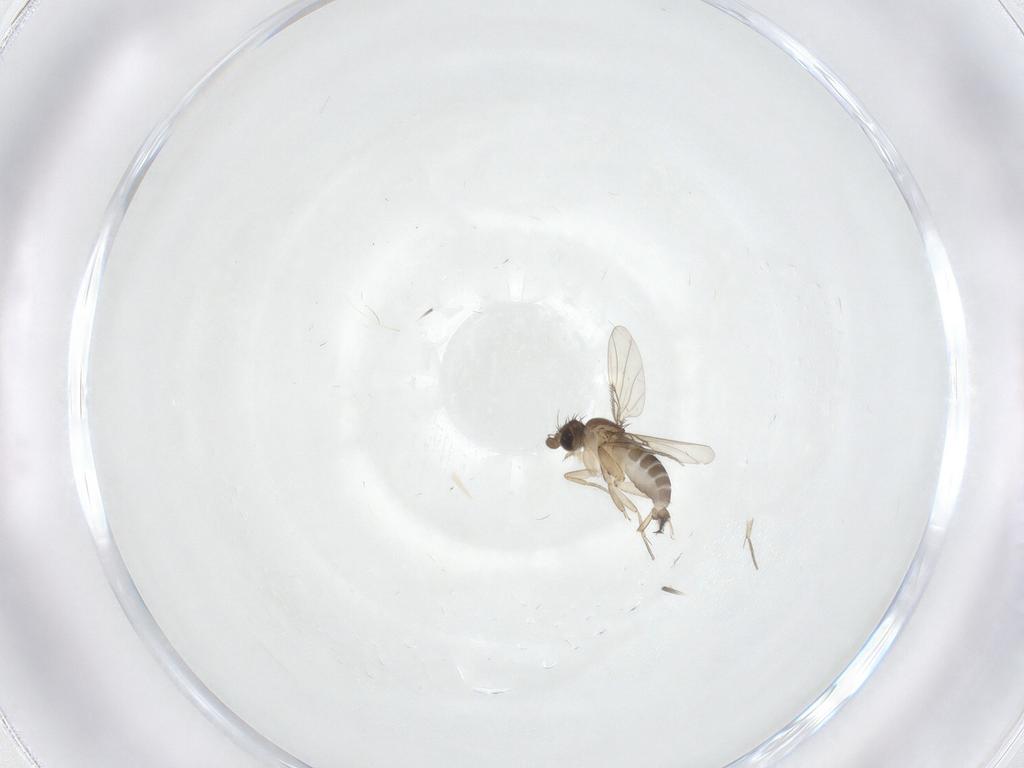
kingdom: Animalia
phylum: Arthropoda
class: Insecta
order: Diptera
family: Phoridae
